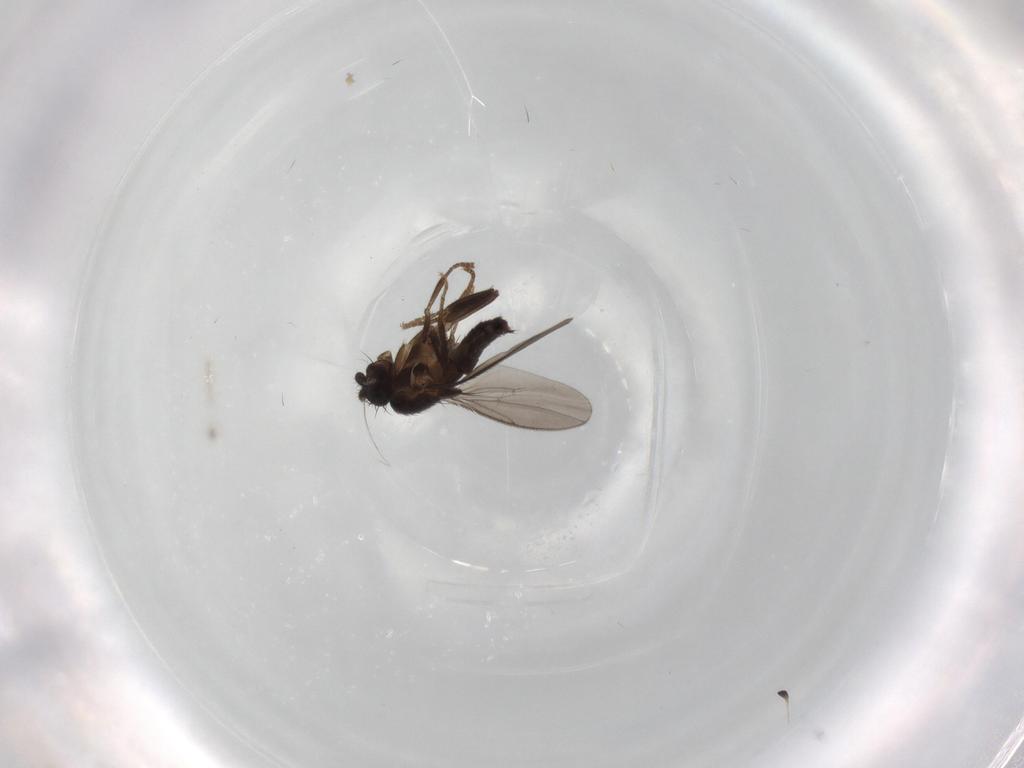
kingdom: Animalia
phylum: Arthropoda
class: Insecta
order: Diptera
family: Sphaeroceridae
